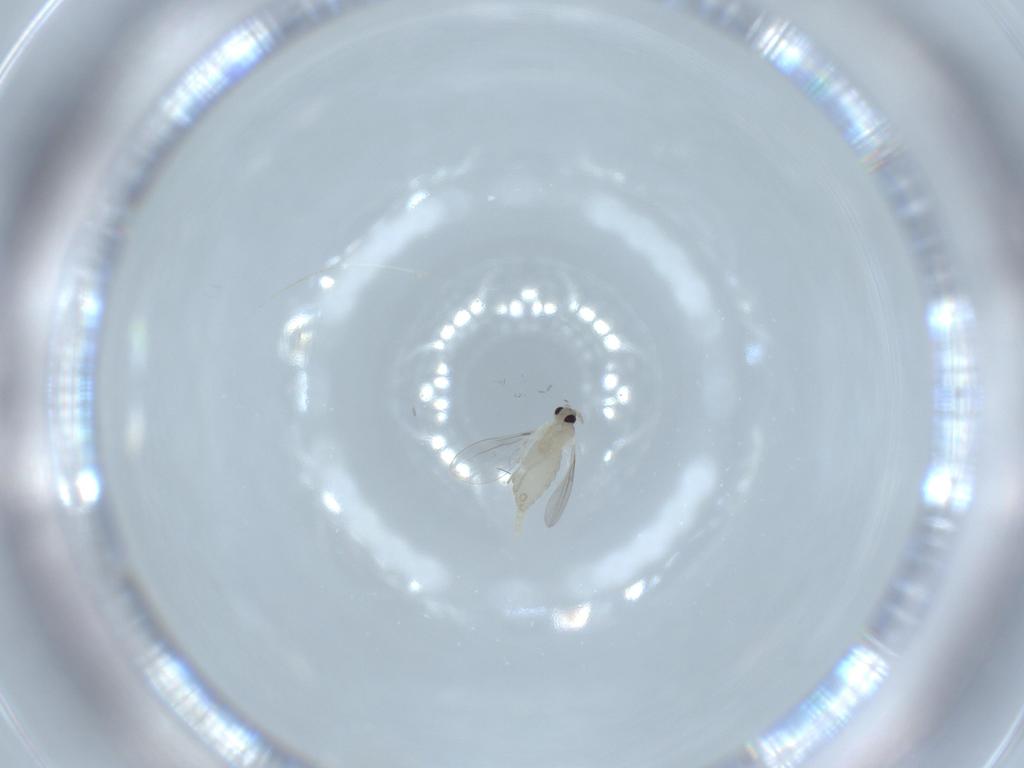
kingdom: Animalia
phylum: Arthropoda
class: Insecta
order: Diptera
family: Cecidomyiidae
